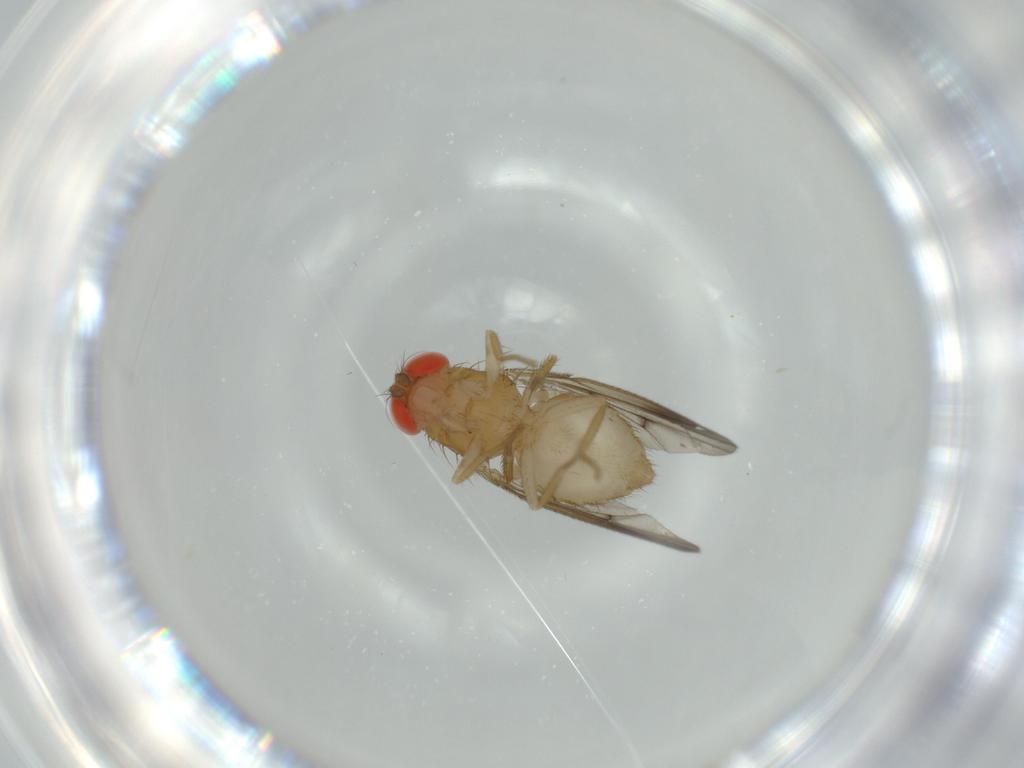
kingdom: Animalia
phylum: Arthropoda
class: Insecta
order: Diptera
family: Drosophilidae
